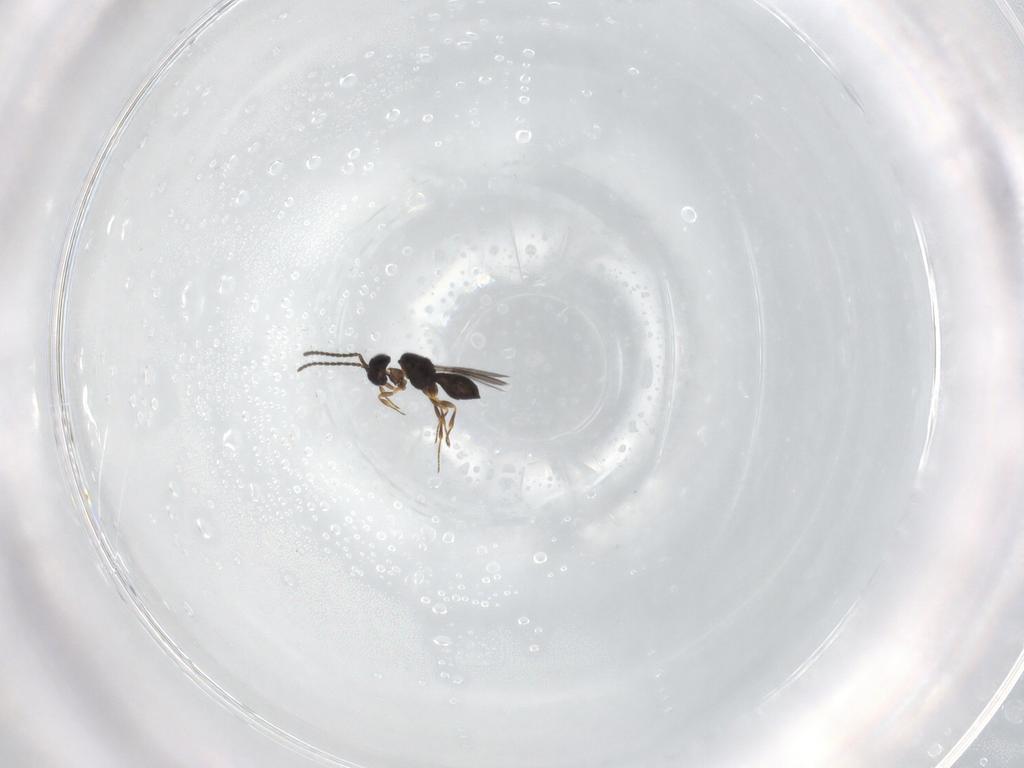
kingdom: Animalia
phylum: Arthropoda
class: Insecta
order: Hymenoptera
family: Scelionidae
